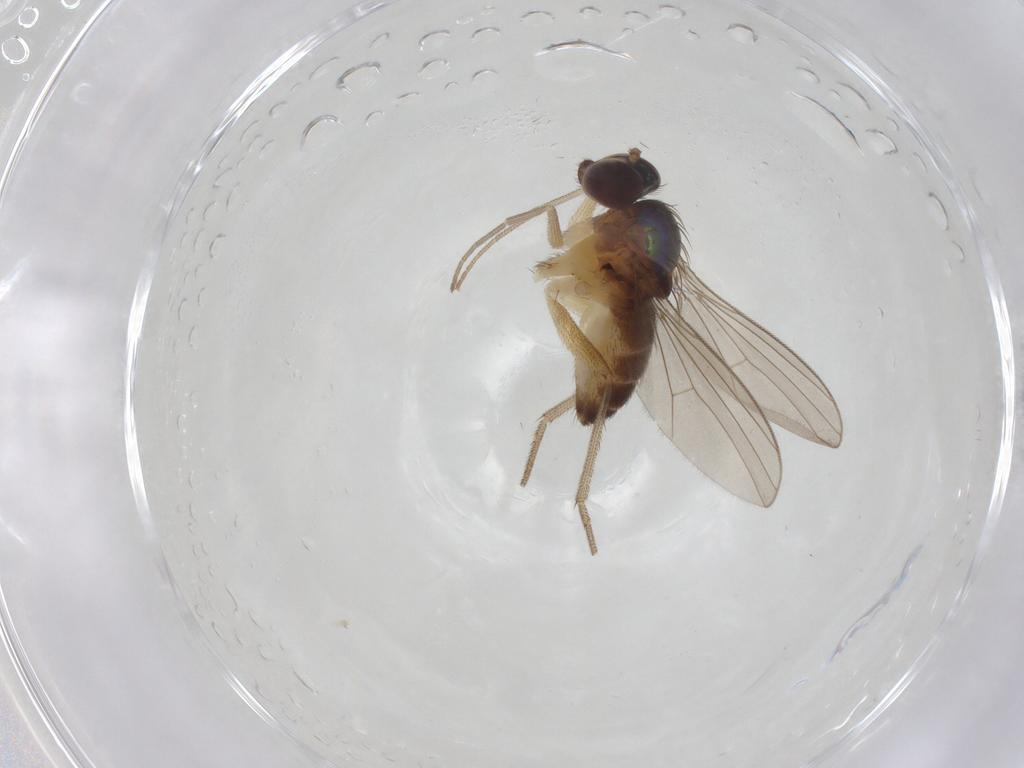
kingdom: Animalia
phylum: Arthropoda
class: Insecta
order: Diptera
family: Dolichopodidae
